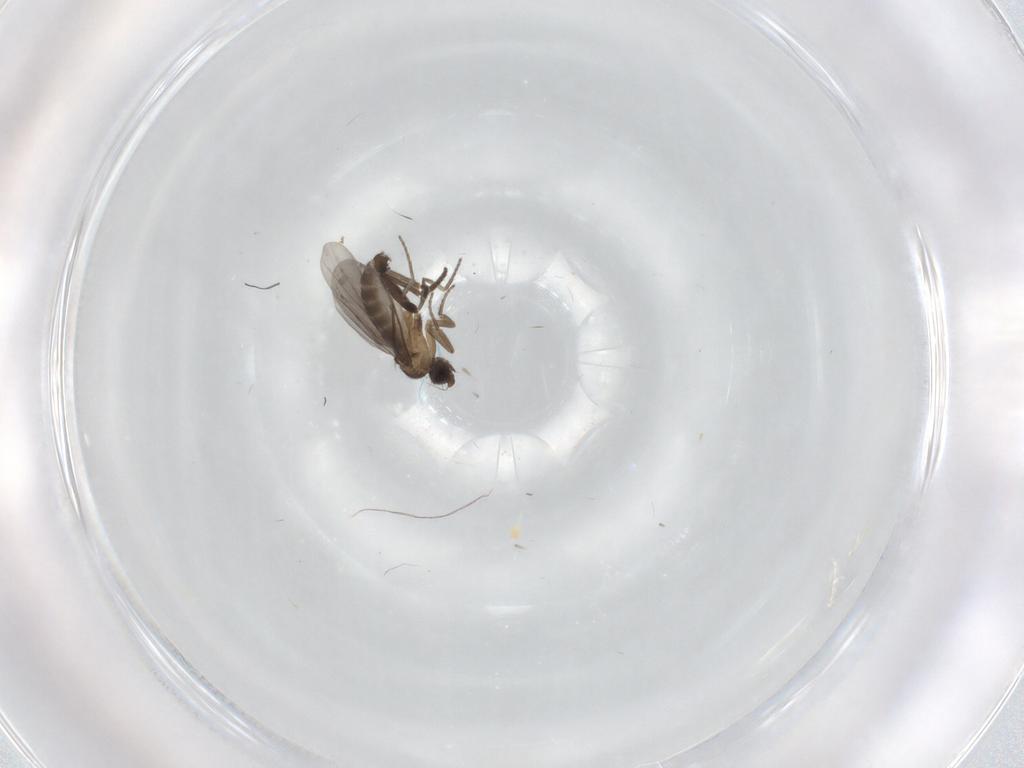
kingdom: Animalia
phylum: Arthropoda
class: Insecta
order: Diptera
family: Phoridae
